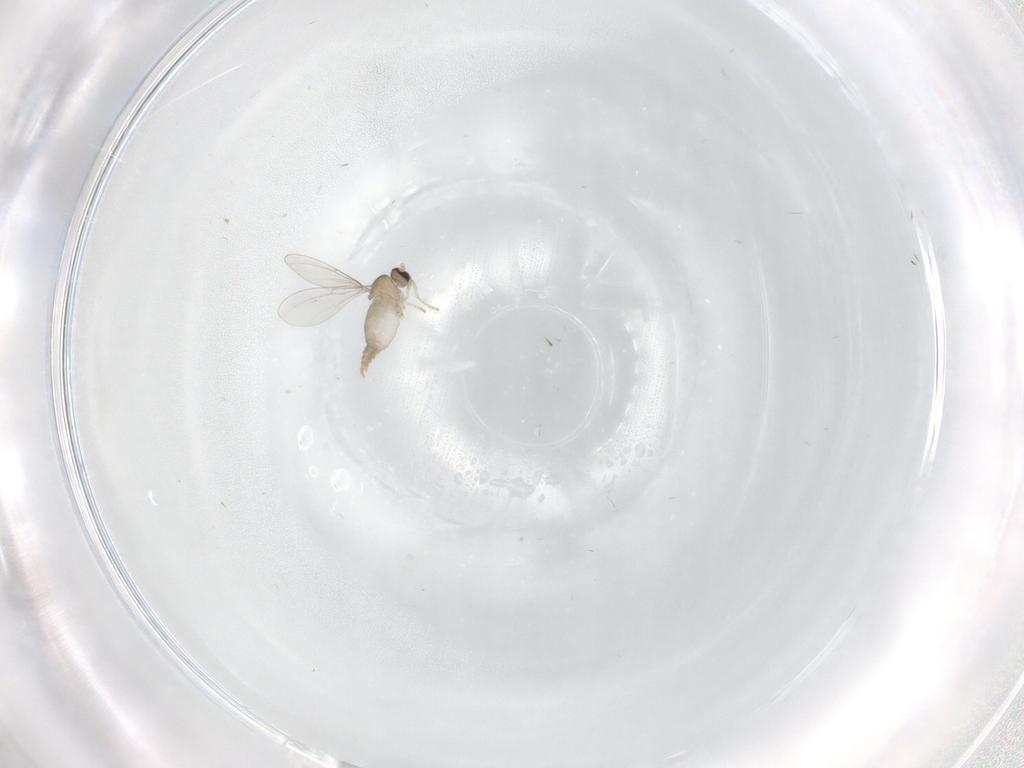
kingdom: Animalia
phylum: Arthropoda
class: Insecta
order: Diptera
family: Cecidomyiidae
